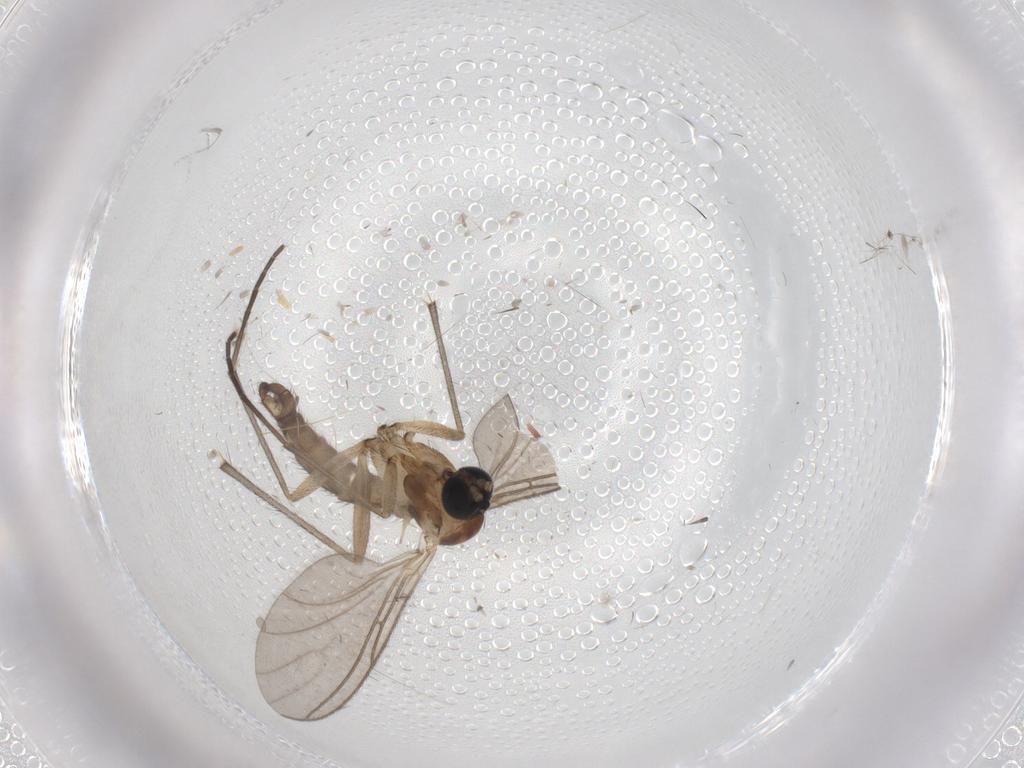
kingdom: Animalia
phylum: Arthropoda
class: Insecta
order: Diptera
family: Sciaridae
